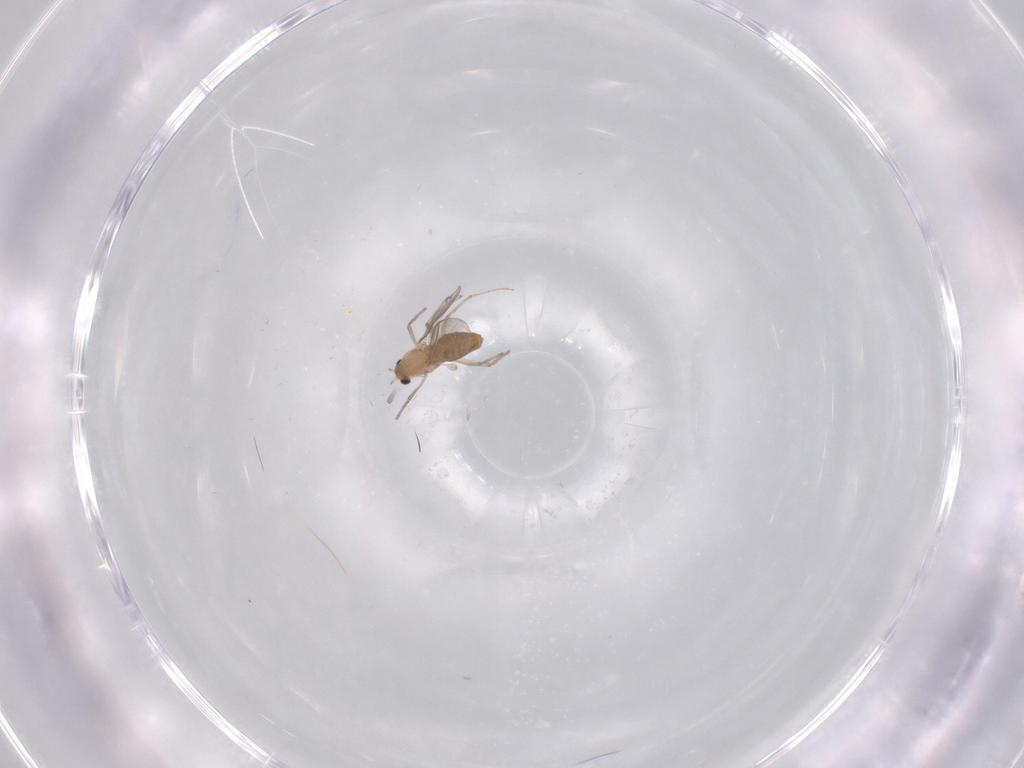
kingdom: Animalia
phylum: Arthropoda
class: Insecta
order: Diptera
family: Chironomidae
